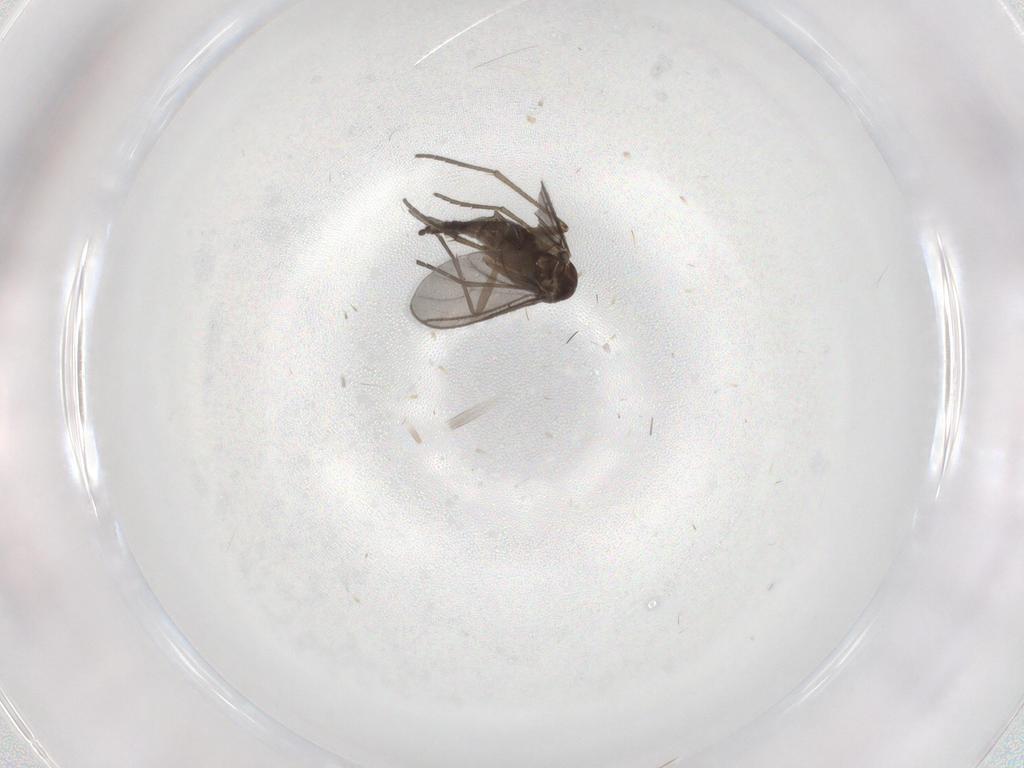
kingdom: Animalia
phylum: Arthropoda
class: Insecta
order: Diptera
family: Sciaridae
